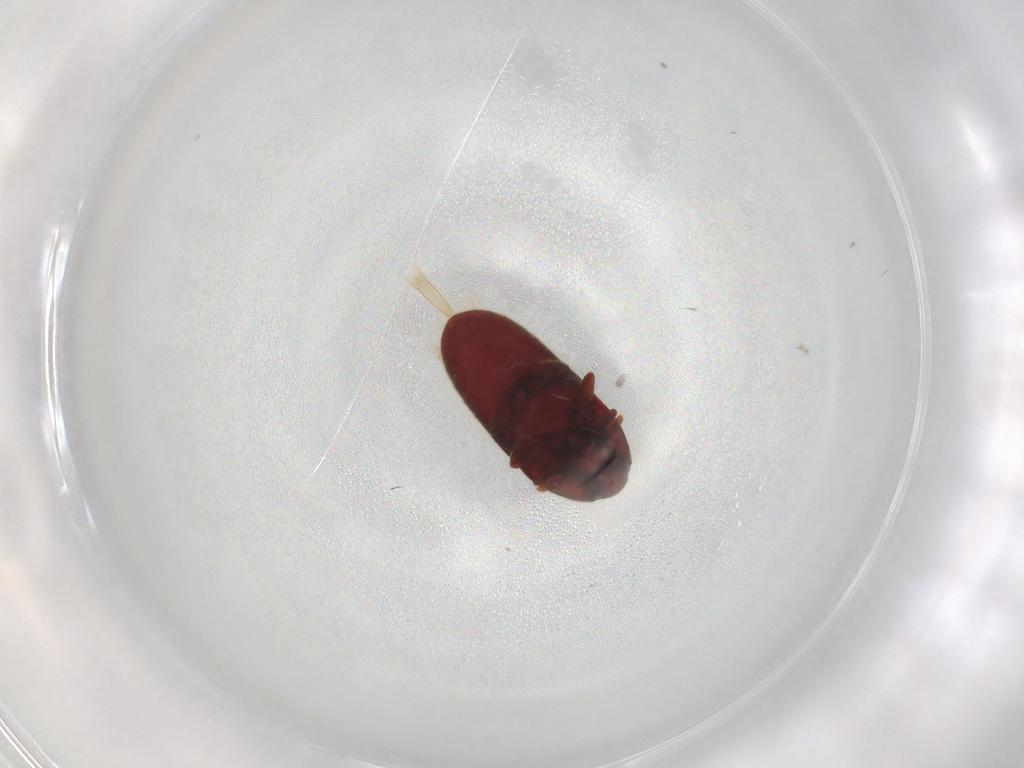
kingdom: Animalia
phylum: Arthropoda
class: Insecta
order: Coleoptera
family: Throscidae
